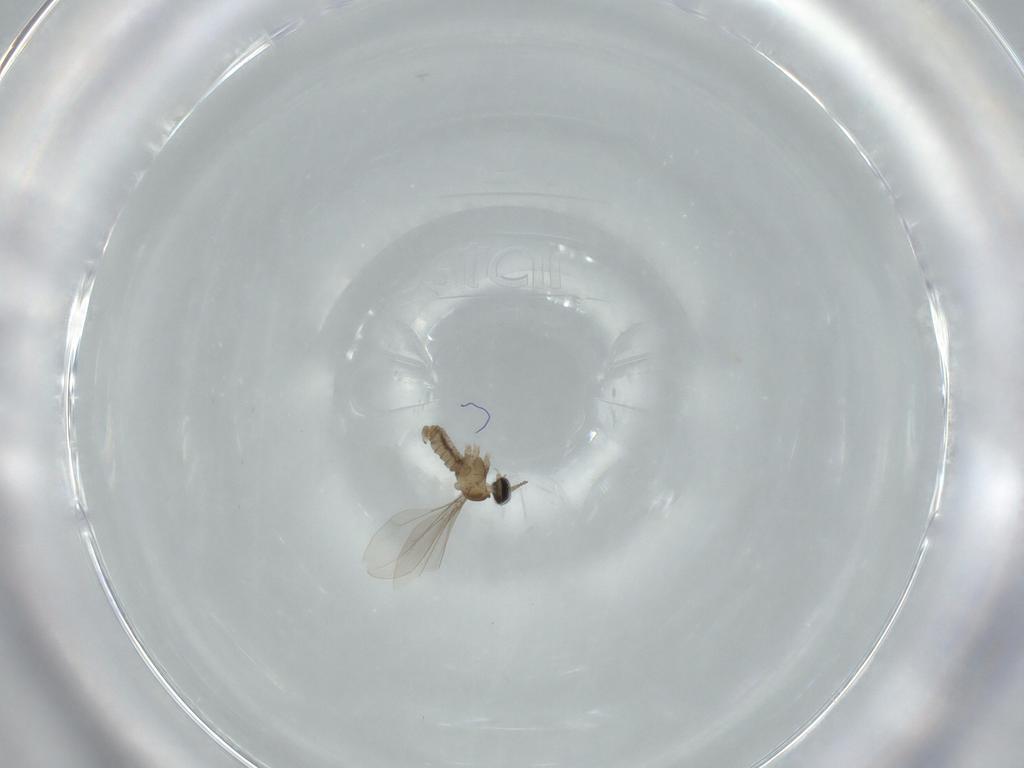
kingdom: Animalia
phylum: Arthropoda
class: Insecta
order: Diptera
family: Cecidomyiidae
